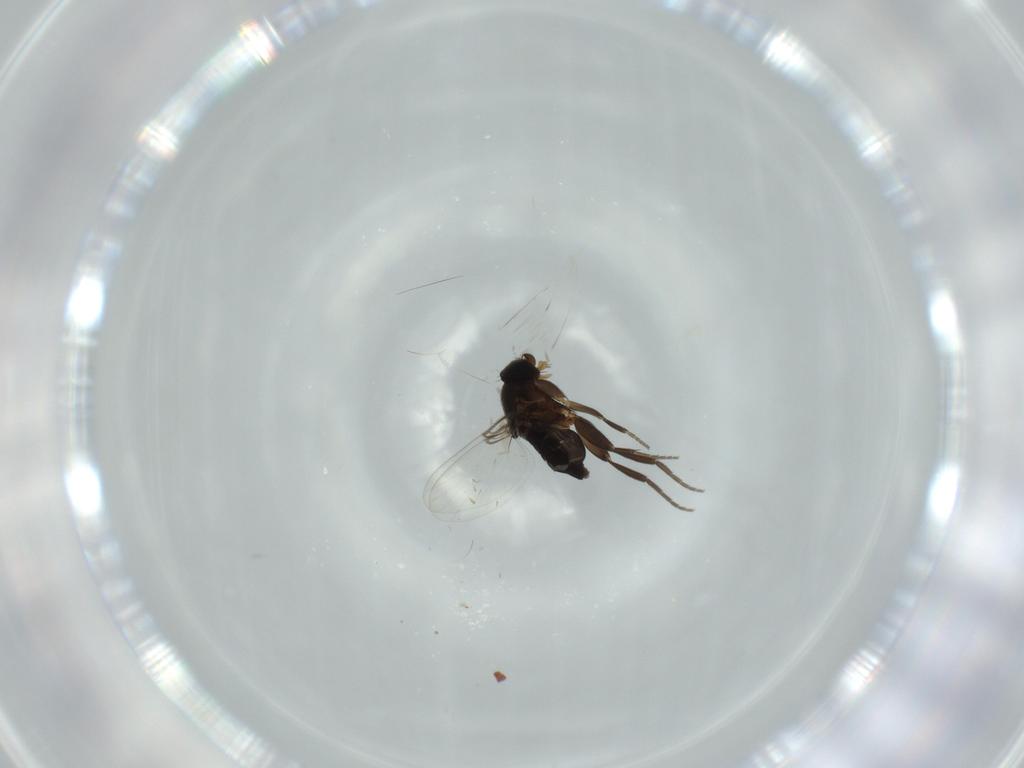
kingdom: Animalia
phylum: Arthropoda
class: Insecta
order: Diptera
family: Phoridae
